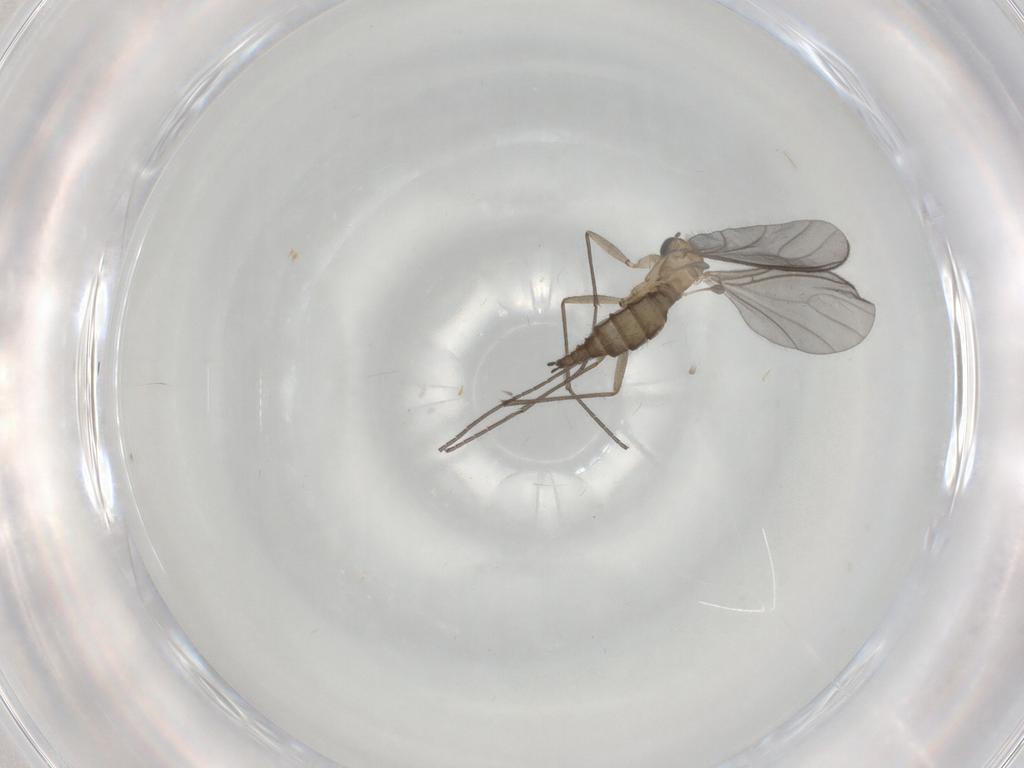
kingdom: Animalia
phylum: Arthropoda
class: Insecta
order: Diptera
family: Sciaridae
